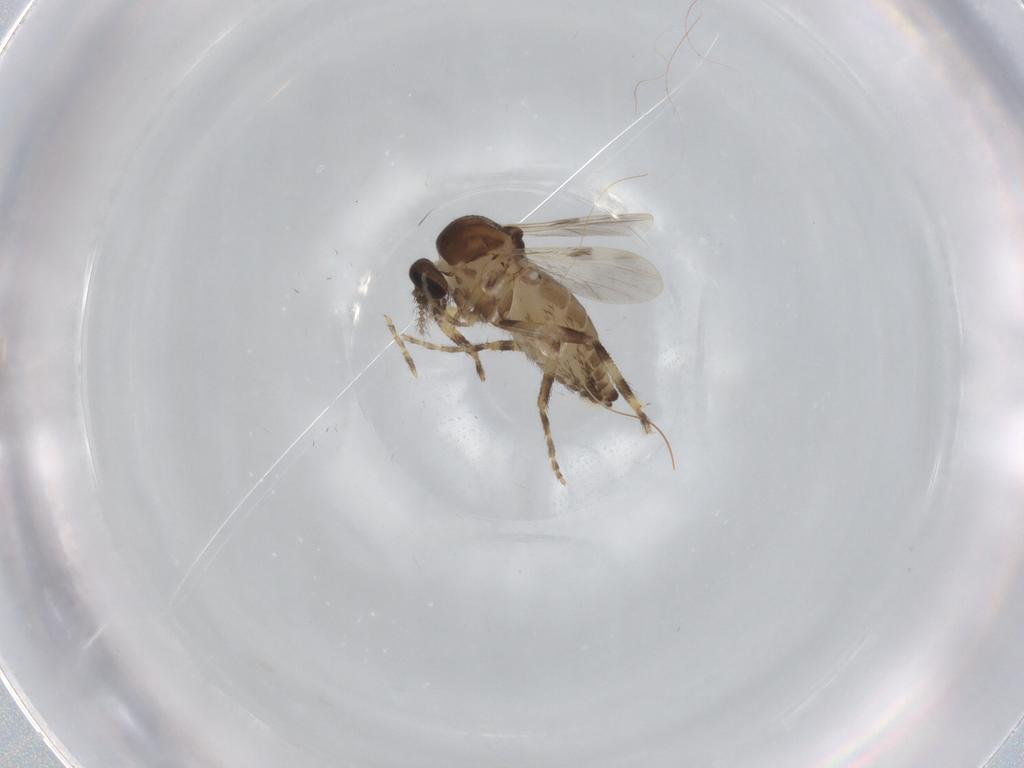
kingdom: Animalia
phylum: Arthropoda
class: Insecta
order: Diptera
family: Ceratopogonidae
